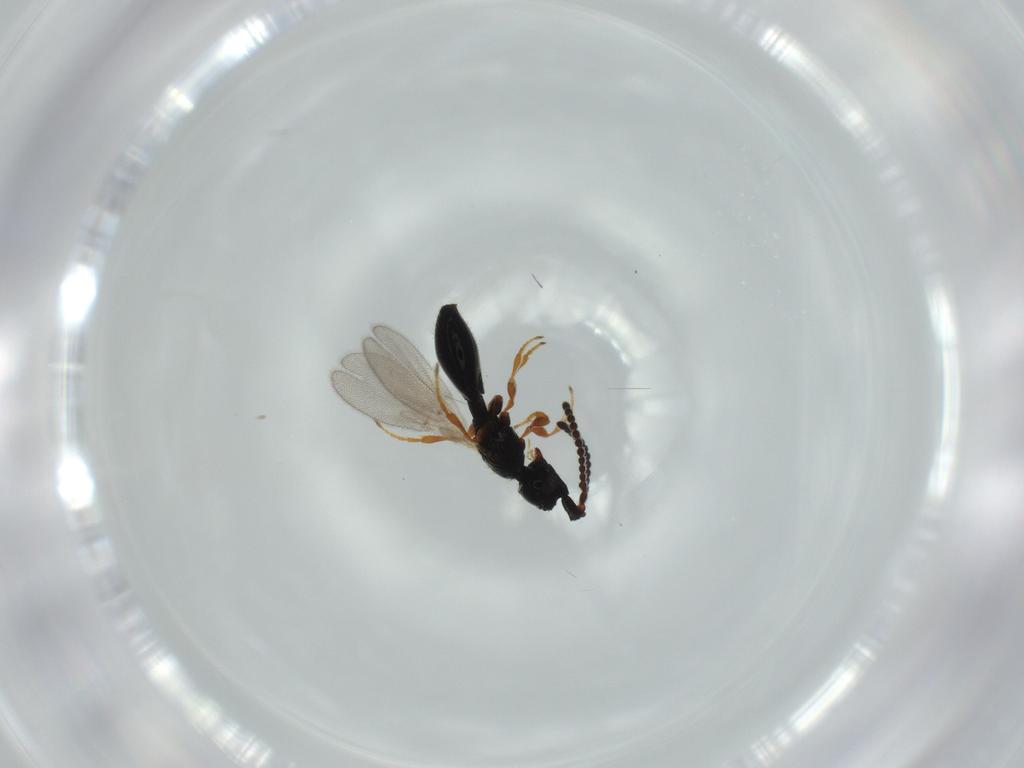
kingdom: Animalia
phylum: Arthropoda
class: Insecta
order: Hymenoptera
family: Diapriidae
